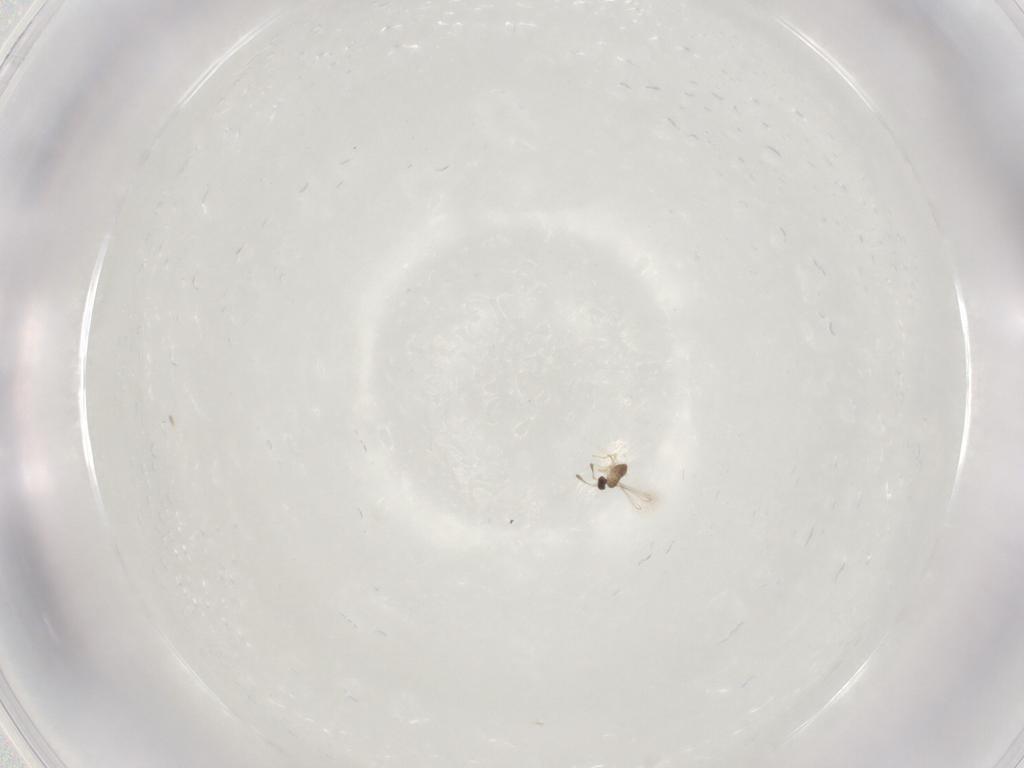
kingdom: Animalia
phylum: Arthropoda
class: Insecta
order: Hymenoptera
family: Mymaridae
